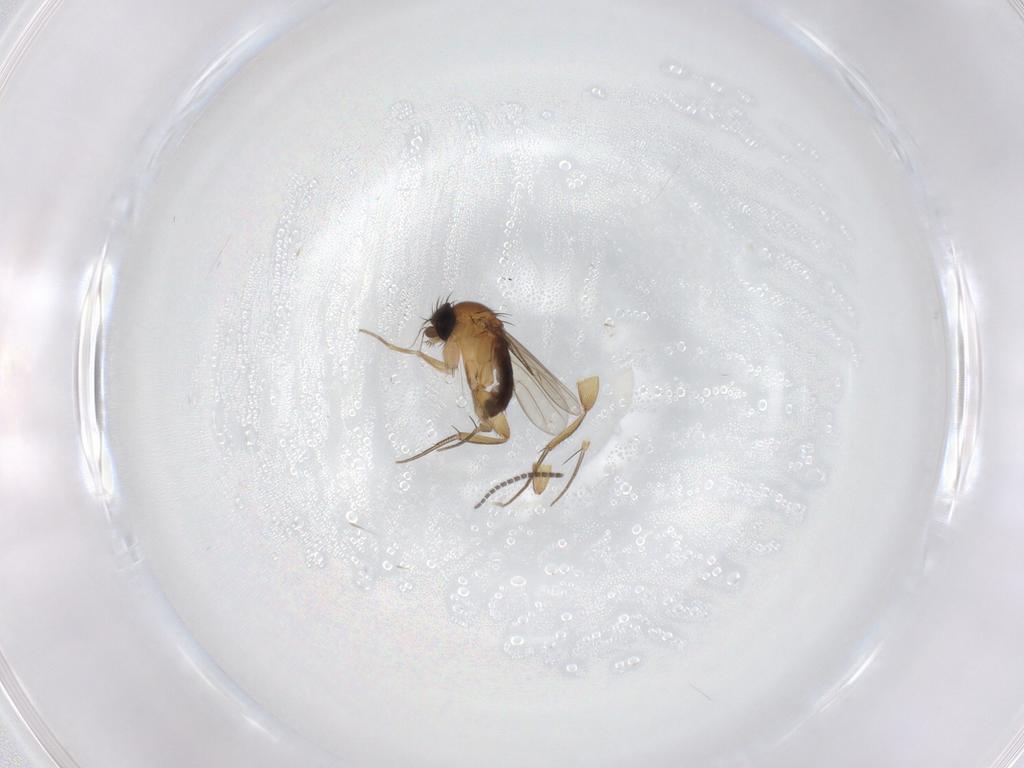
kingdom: Animalia
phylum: Arthropoda
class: Insecta
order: Diptera
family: Sciaridae
